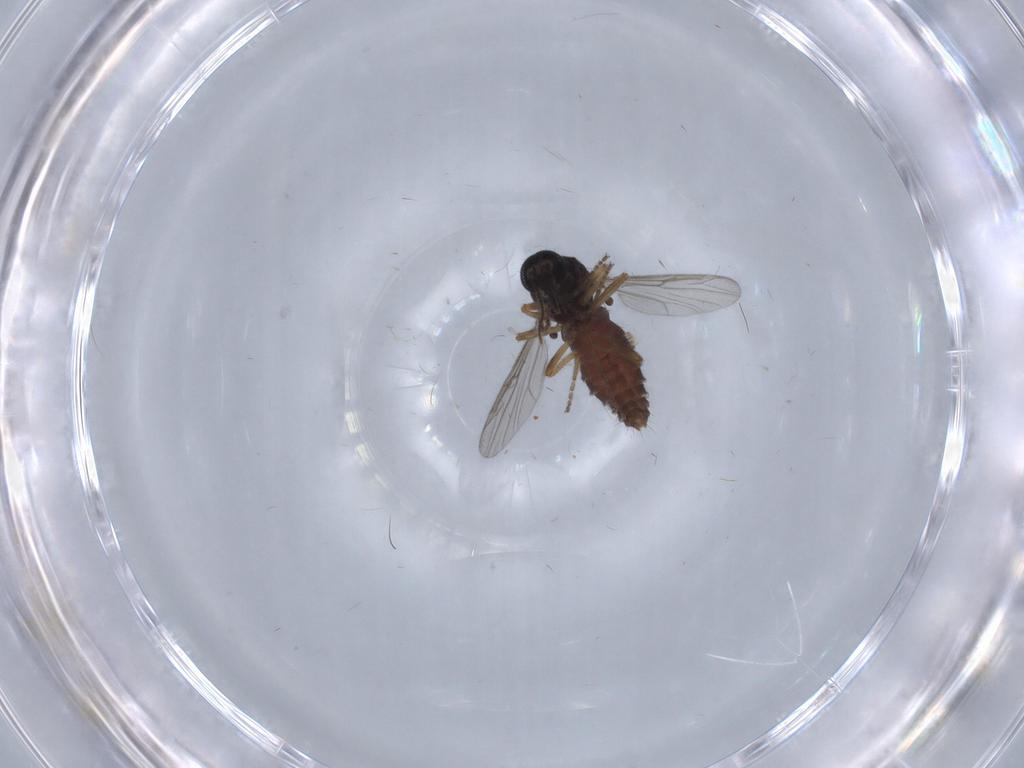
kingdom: Animalia
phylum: Arthropoda
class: Insecta
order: Diptera
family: Ceratopogonidae
